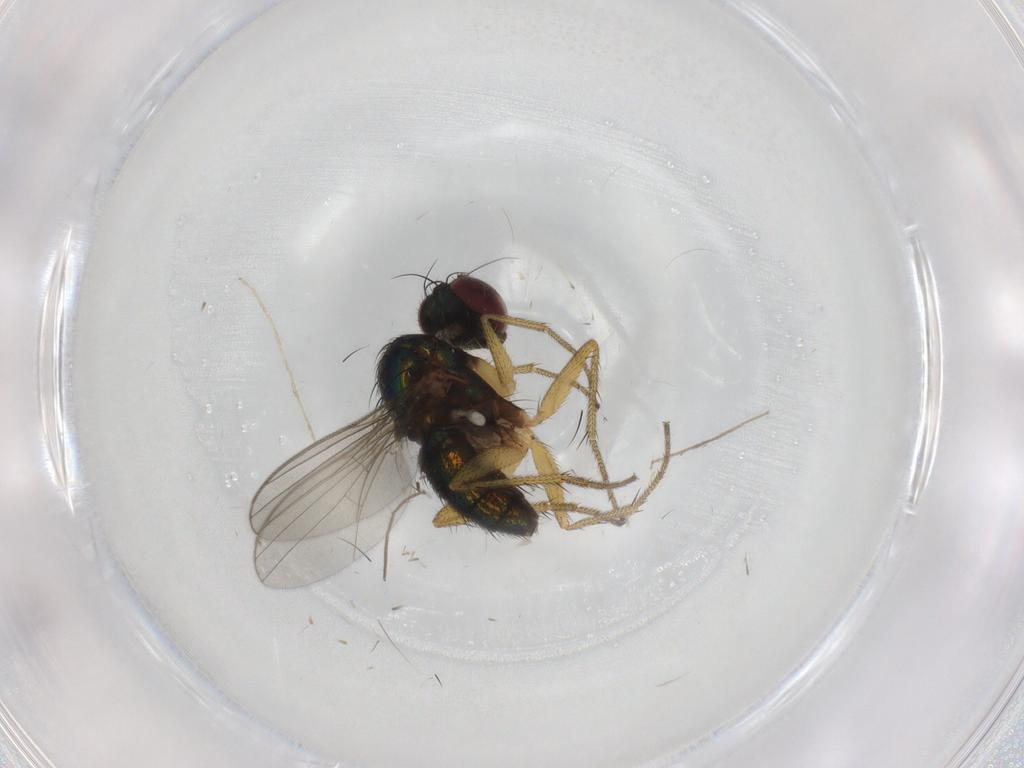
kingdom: Animalia
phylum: Arthropoda
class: Insecta
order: Diptera
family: Chironomidae
